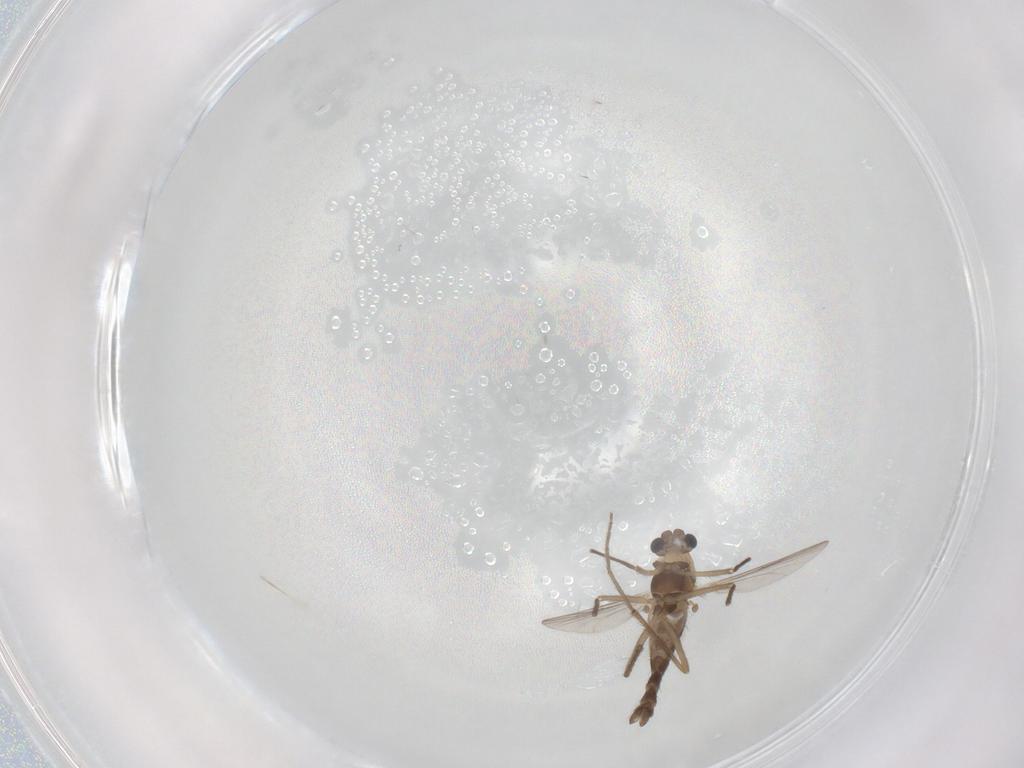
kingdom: Animalia
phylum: Arthropoda
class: Insecta
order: Diptera
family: Chironomidae
